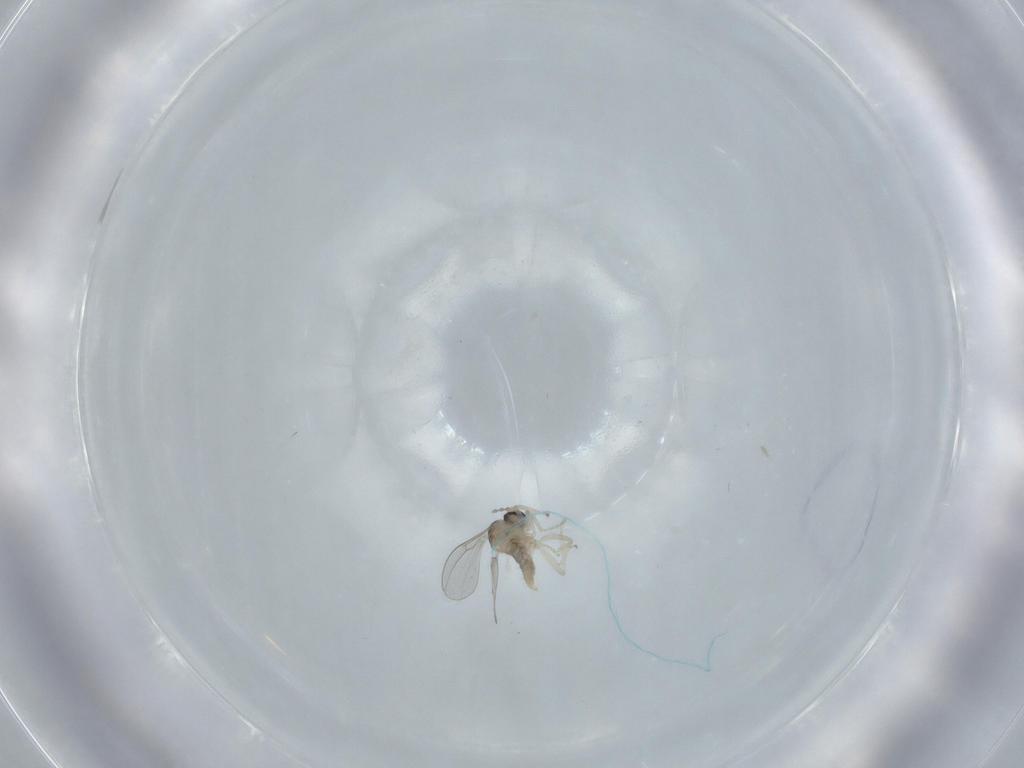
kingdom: Animalia
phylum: Arthropoda
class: Insecta
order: Diptera
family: Cecidomyiidae
